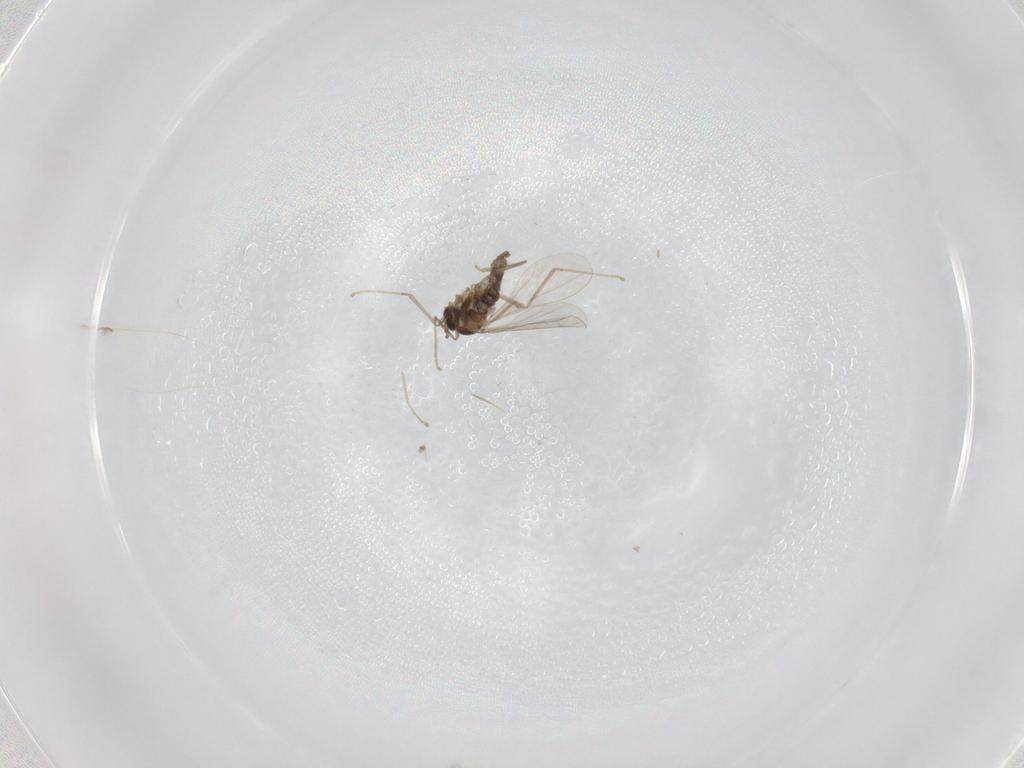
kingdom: Animalia
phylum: Arthropoda
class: Insecta
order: Diptera
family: Cecidomyiidae
